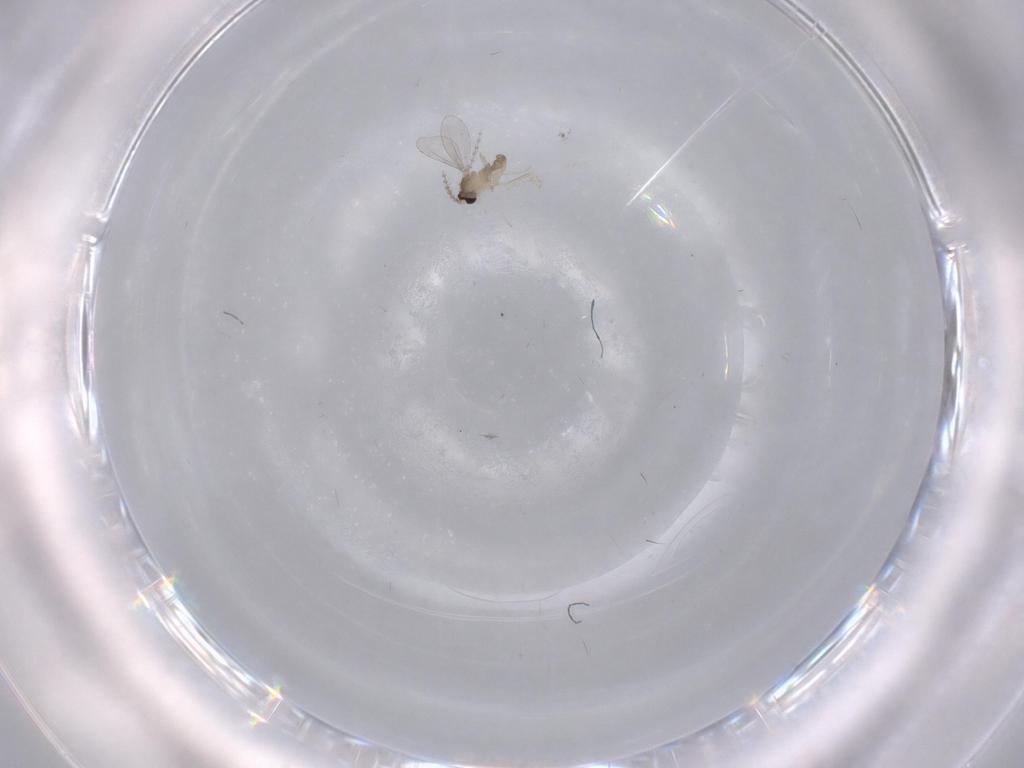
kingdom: Animalia
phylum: Arthropoda
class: Insecta
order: Diptera
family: Cecidomyiidae
